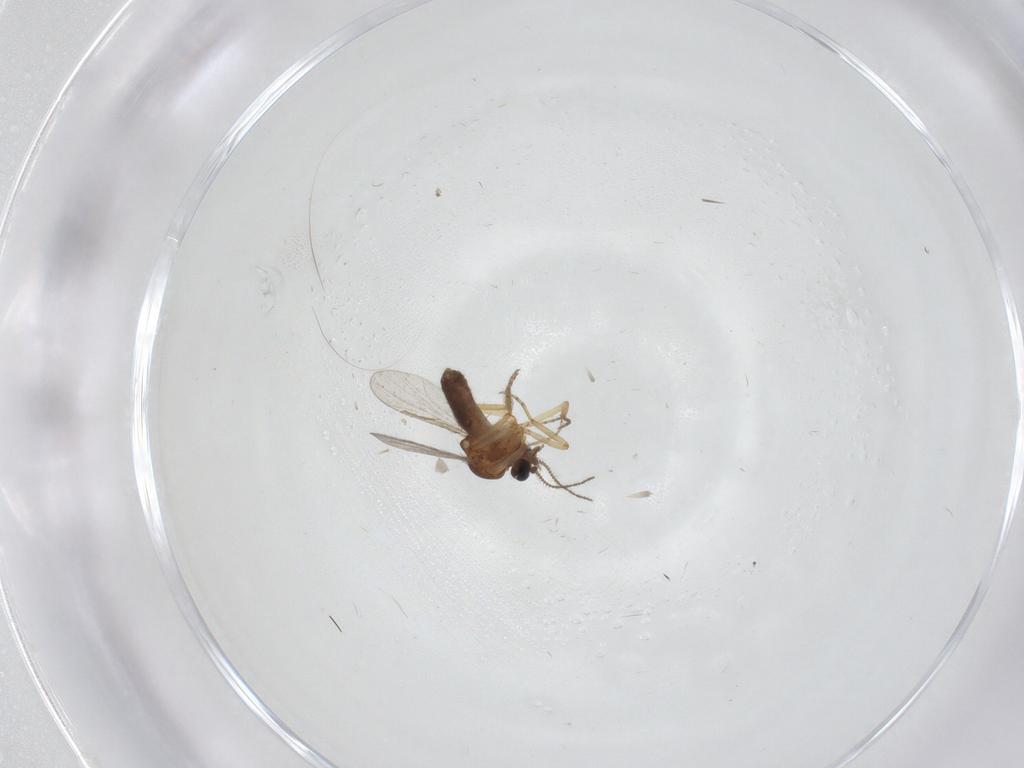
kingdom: Animalia
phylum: Arthropoda
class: Insecta
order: Diptera
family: Ceratopogonidae
